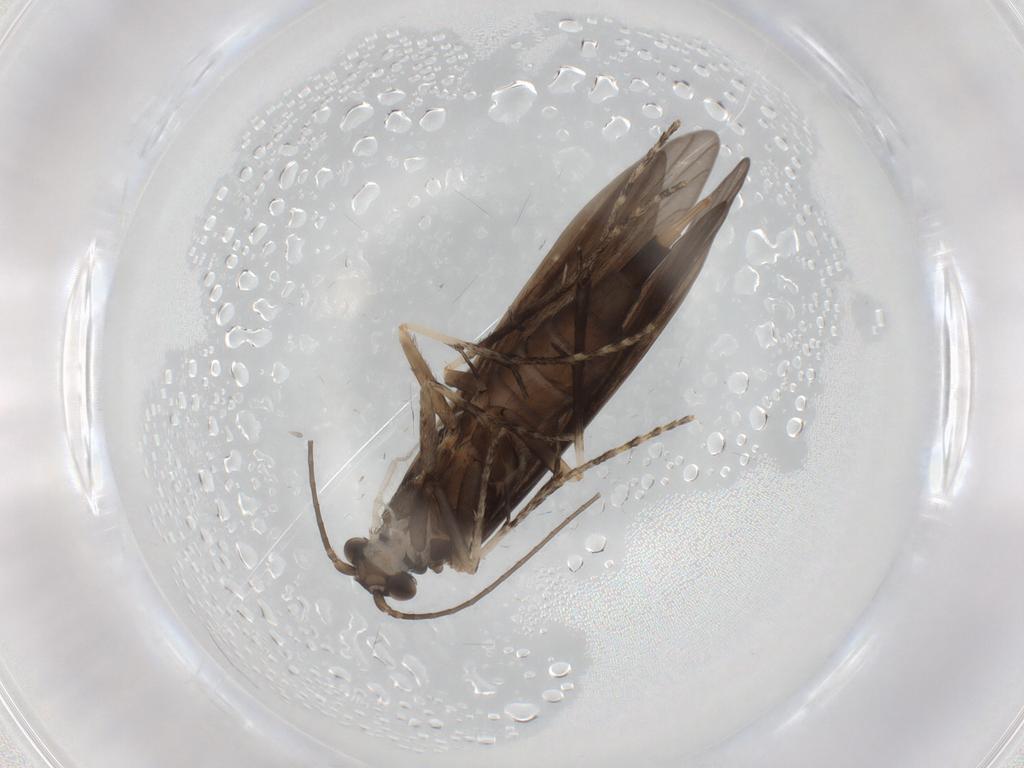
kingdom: Animalia
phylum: Arthropoda
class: Insecta
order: Trichoptera
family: Xiphocentronidae
